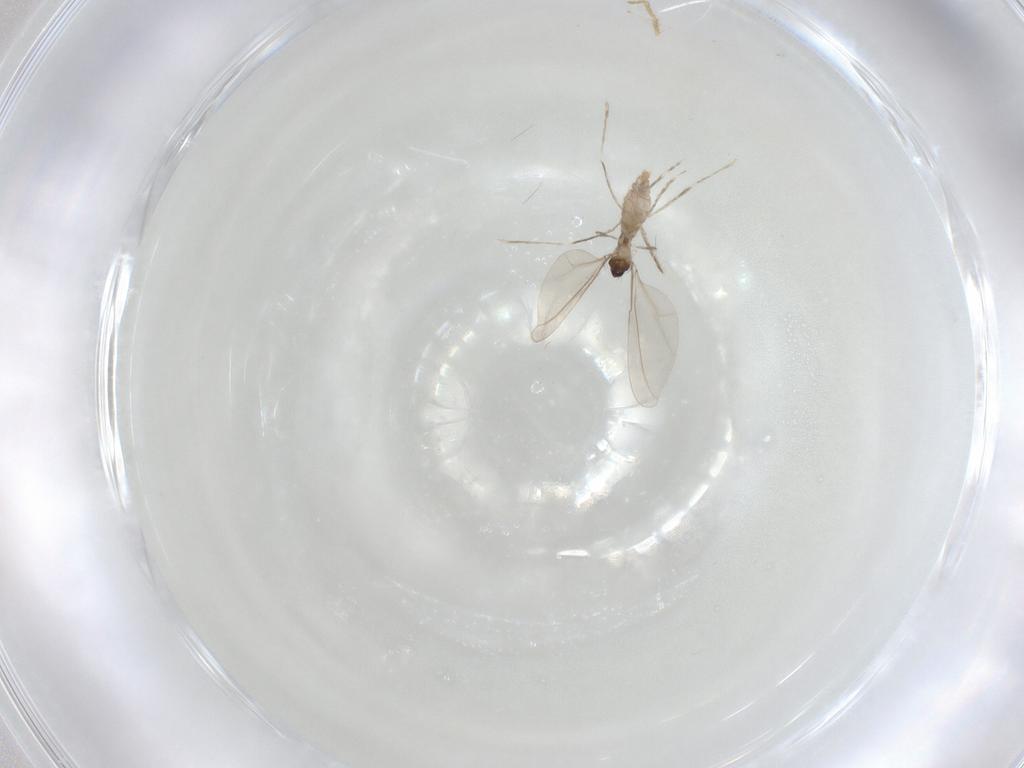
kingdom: Animalia
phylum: Arthropoda
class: Insecta
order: Diptera
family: Cecidomyiidae
